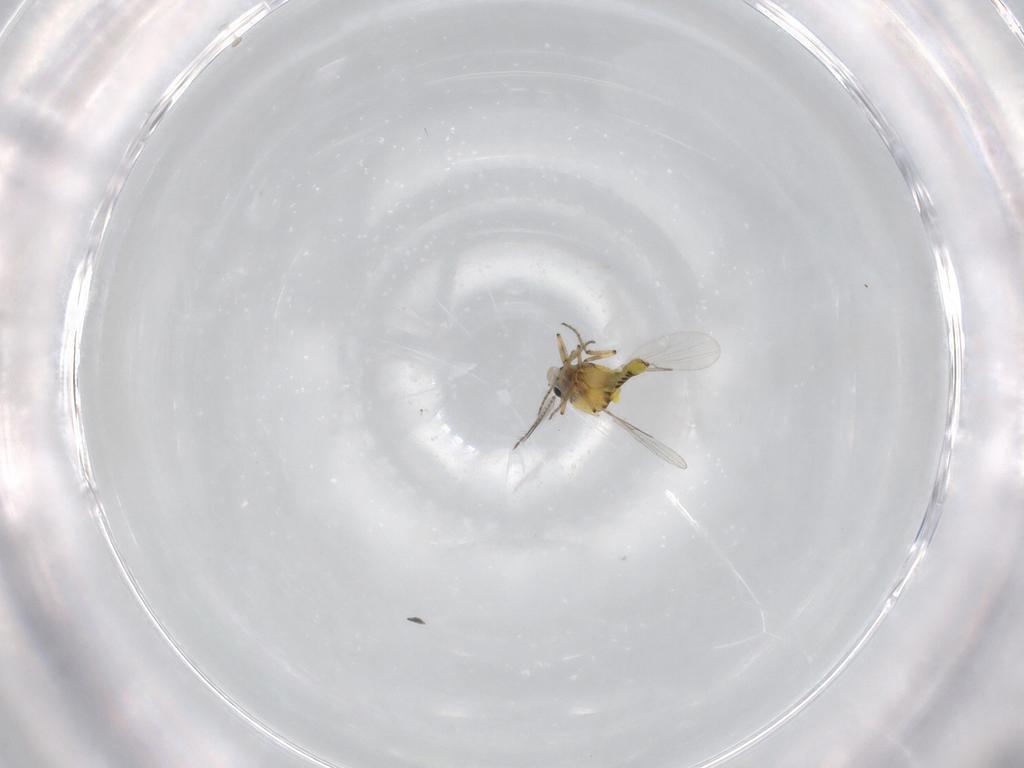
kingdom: Animalia
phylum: Arthropoda
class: Insecta
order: Diptera
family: Ceratopogonidae
